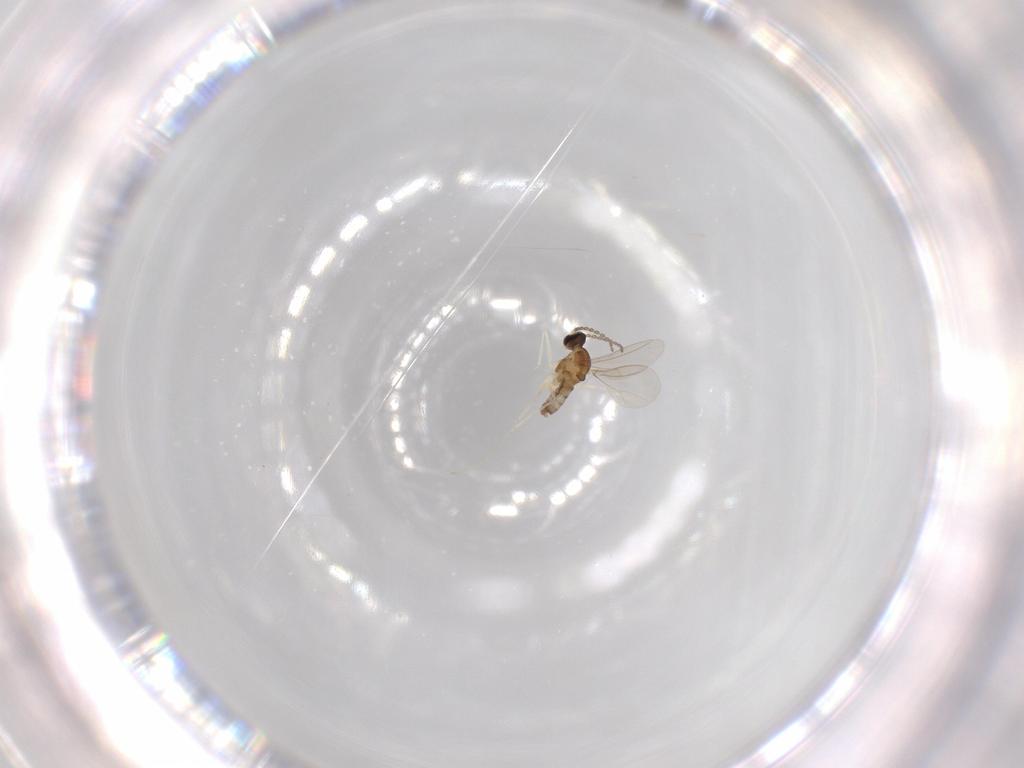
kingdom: Animalia
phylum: Arthropoda
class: Insecta
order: Diptera
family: Cecidomyiidae
